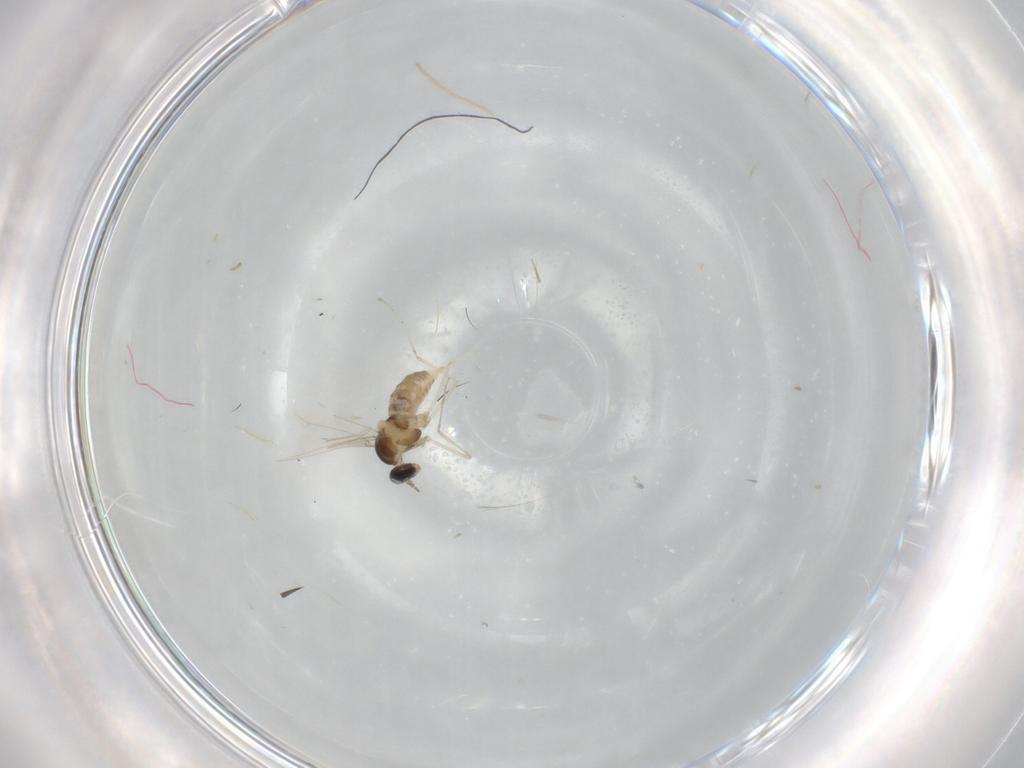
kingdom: Animalia
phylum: Arthropoda
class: Insecta
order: Diptera
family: Cecidomyiidae
